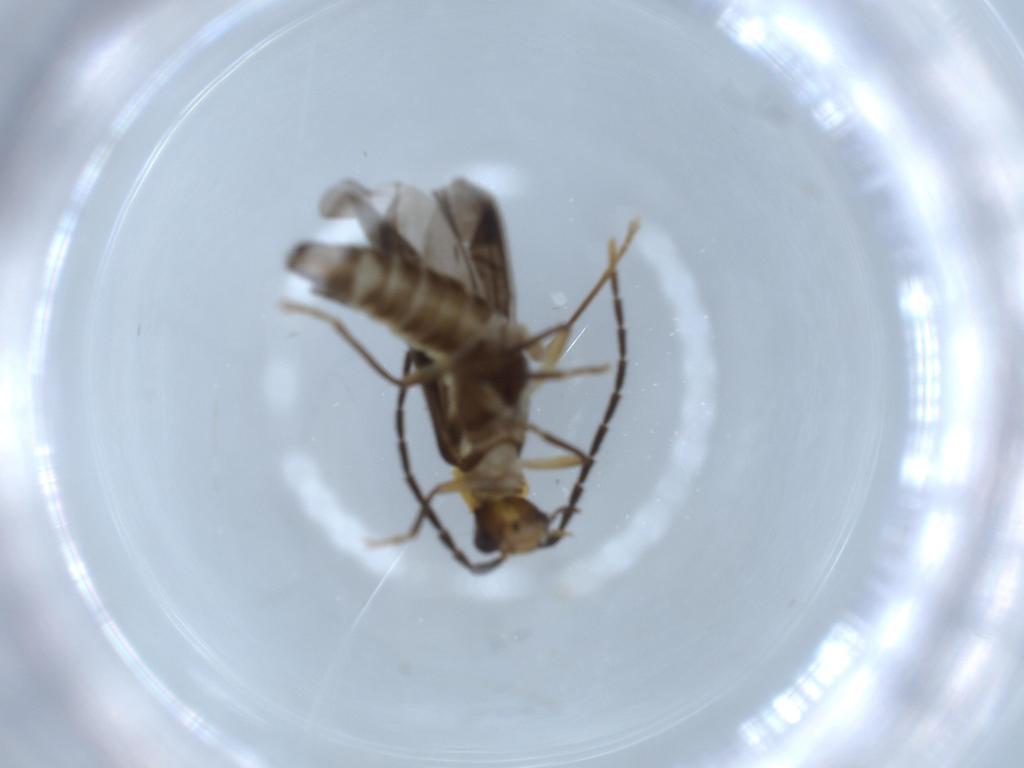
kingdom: Animalia
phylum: Arthropoda
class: Insecta
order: Coleoptera
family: Cantharidae
